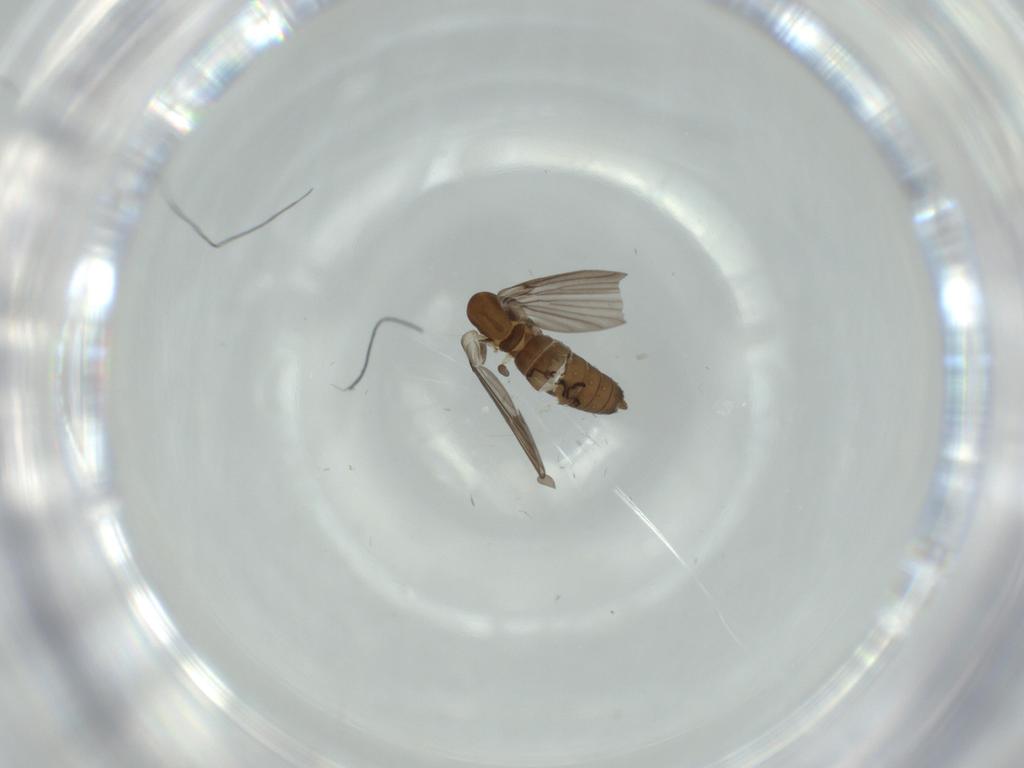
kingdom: Animalia
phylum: Arthropoda
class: Insecta
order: Diptera
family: Psychodidae
